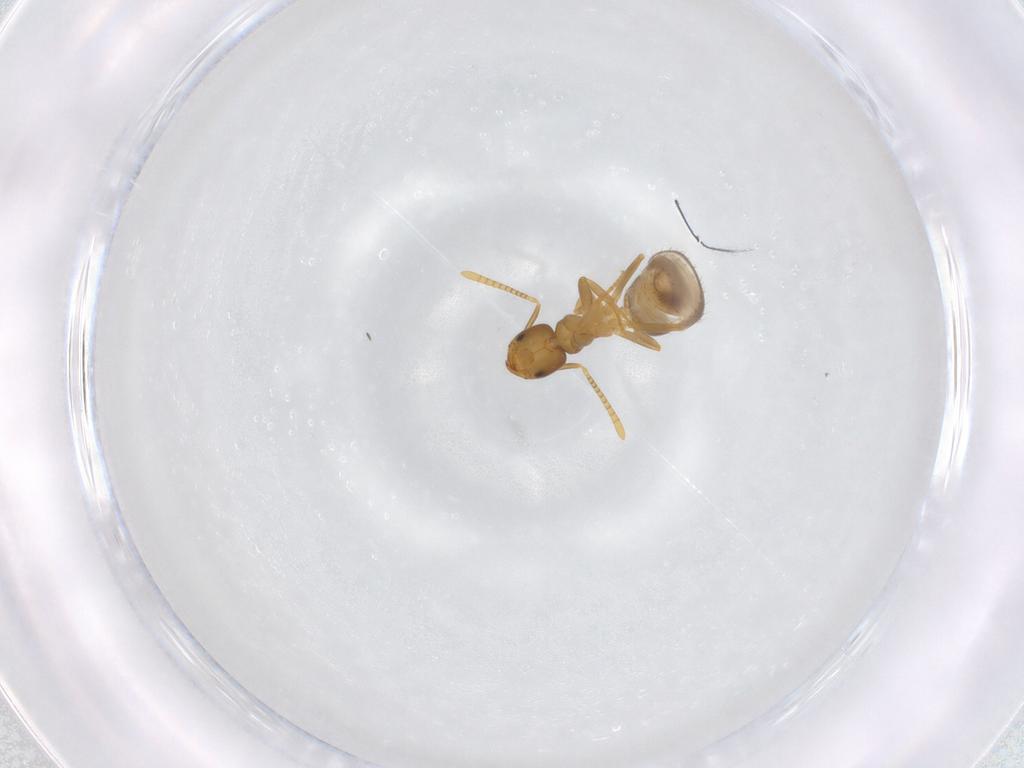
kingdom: Animalia
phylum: Arthropoda
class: Insecta
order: Hymenoptera
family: Formicidae
